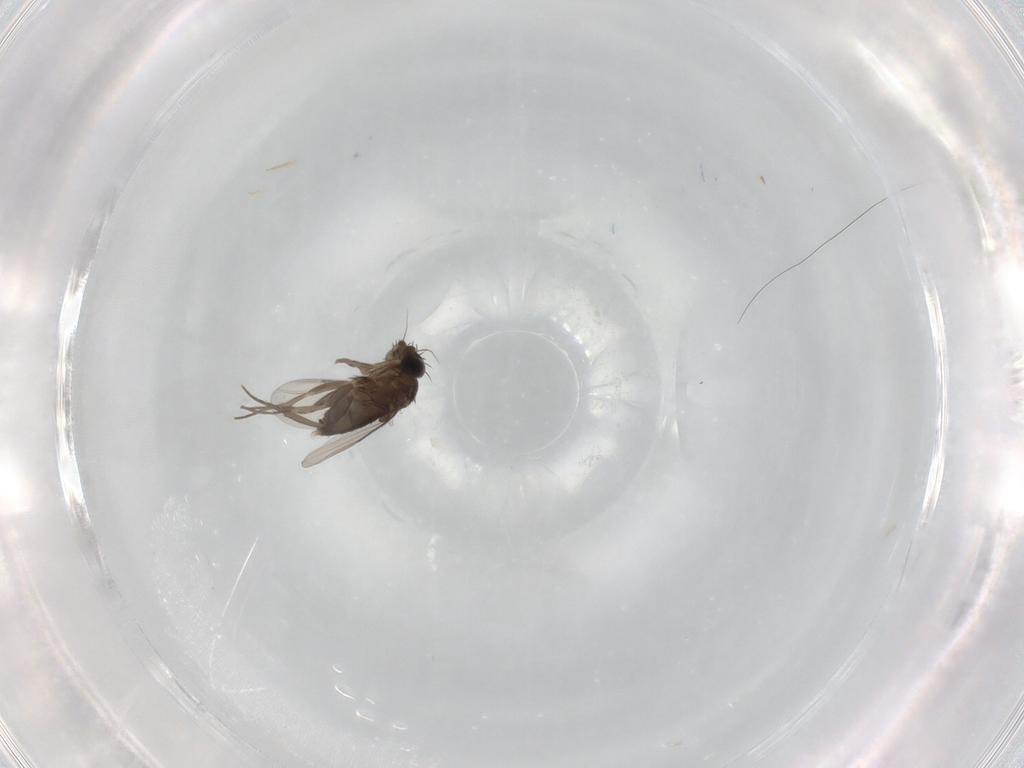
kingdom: Animalia
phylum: Arthropoda
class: Insecta
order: Diptera
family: Phoridae
